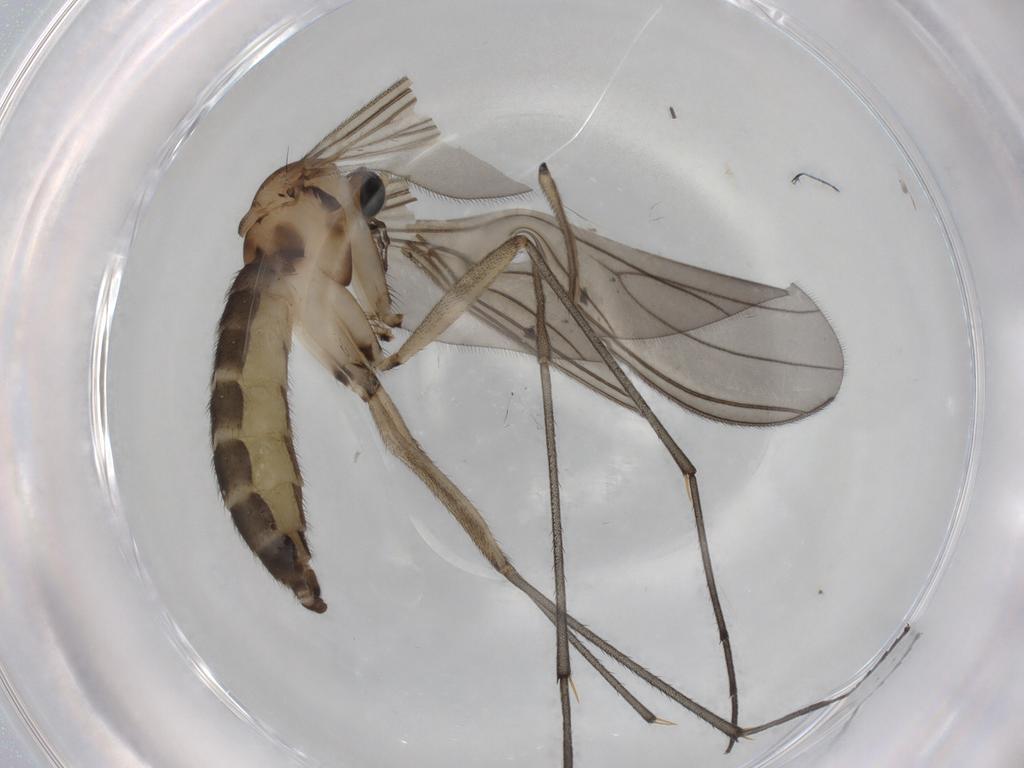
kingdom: Animalia
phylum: Arthropoda
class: Insecta
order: Diptera
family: Sciaridae
